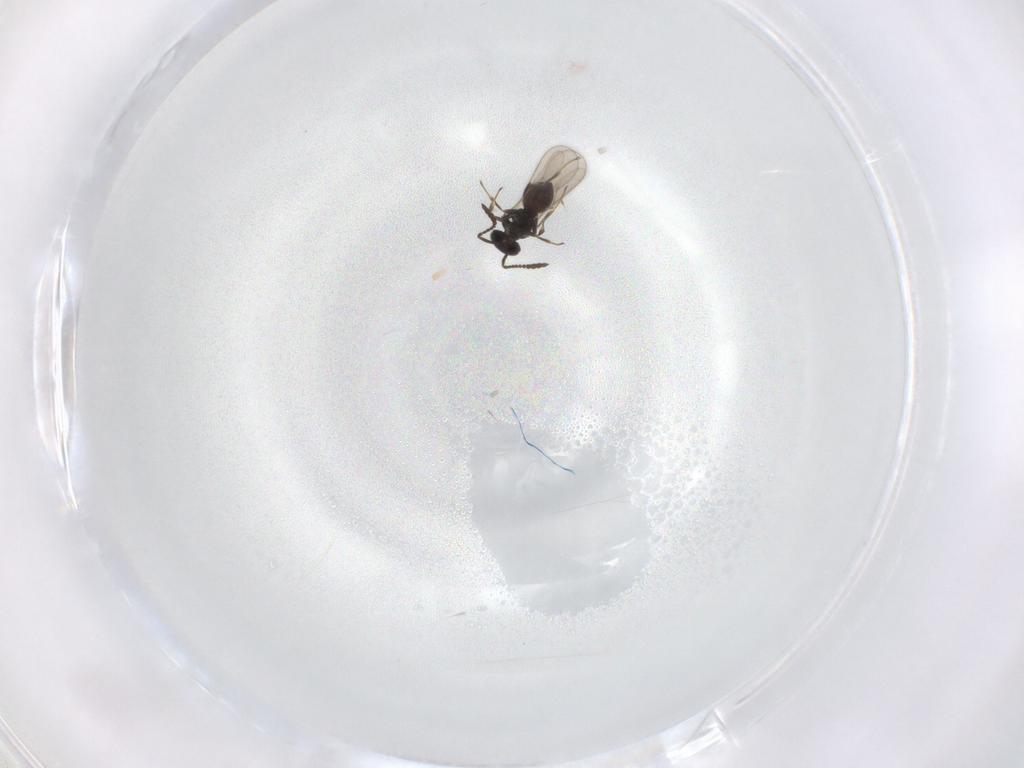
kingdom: Animalia
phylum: Arthropoda
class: Insecta
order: Hymenoptera
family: Scelionidae
